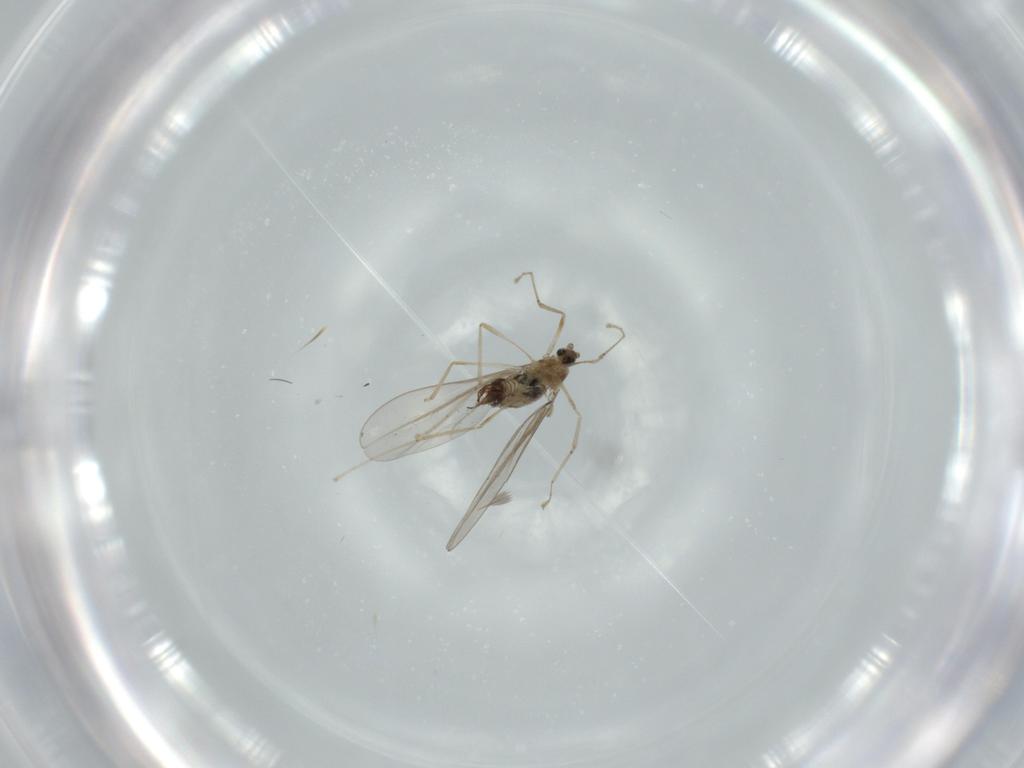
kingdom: Animalia
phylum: Arthropoda
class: Insecta
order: Diptera
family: Cecidomyiidae
